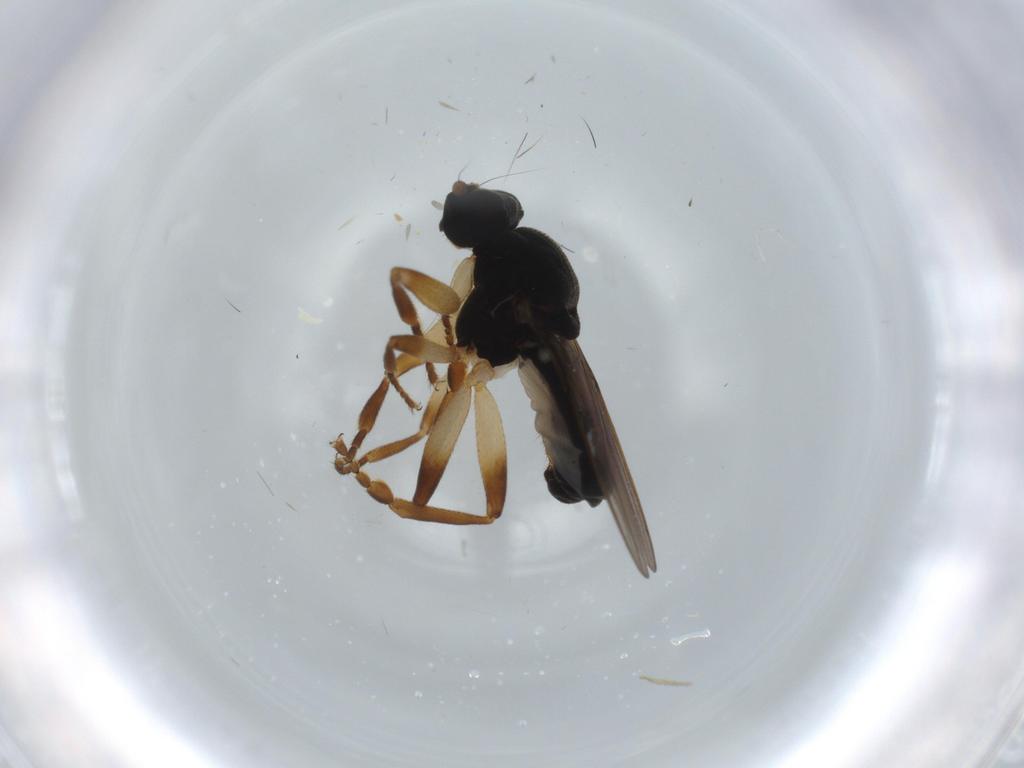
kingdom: Animalia
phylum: Arthropoda
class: Insecta
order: Diptera
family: Sphaeroceridae
